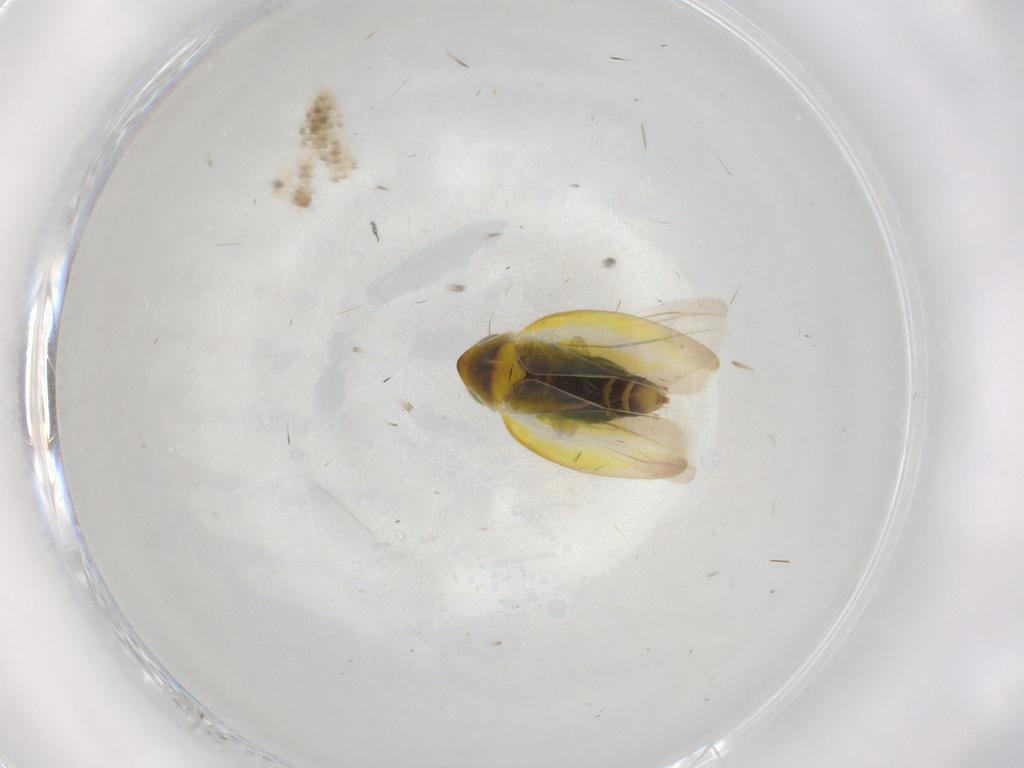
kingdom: Animalia
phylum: Arthropoda
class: Insecta
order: Hemiptera
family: Cicadellidae
